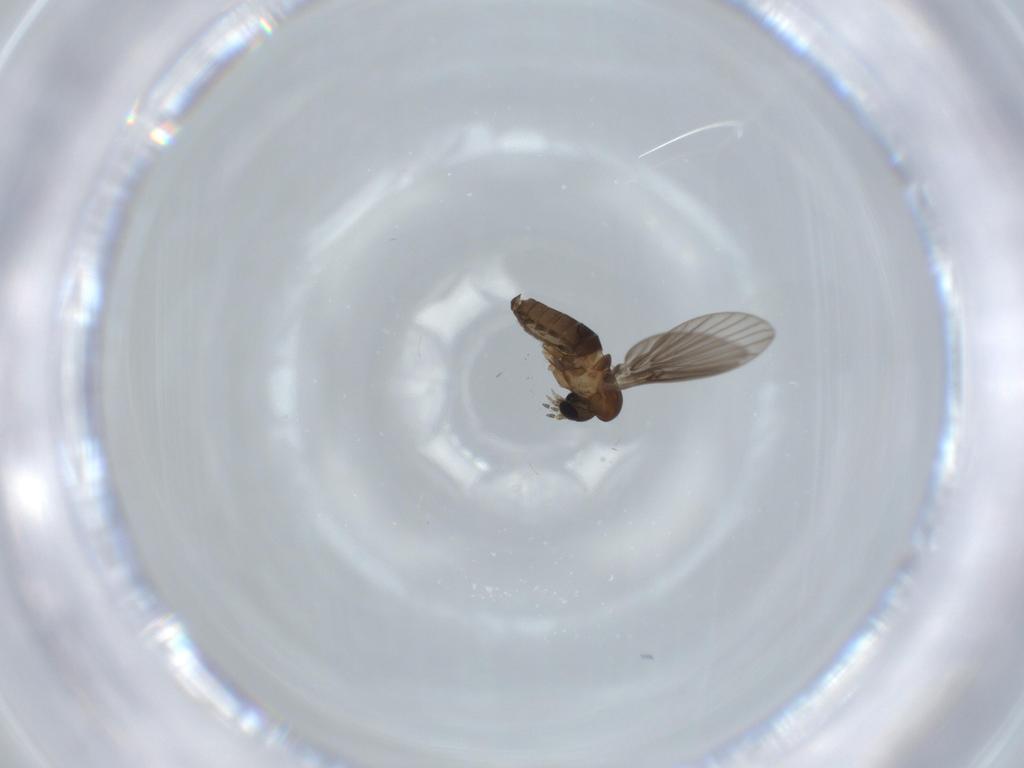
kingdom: Animalia
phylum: Arthropoda
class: Insecta
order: Diptera
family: Psychodidae
